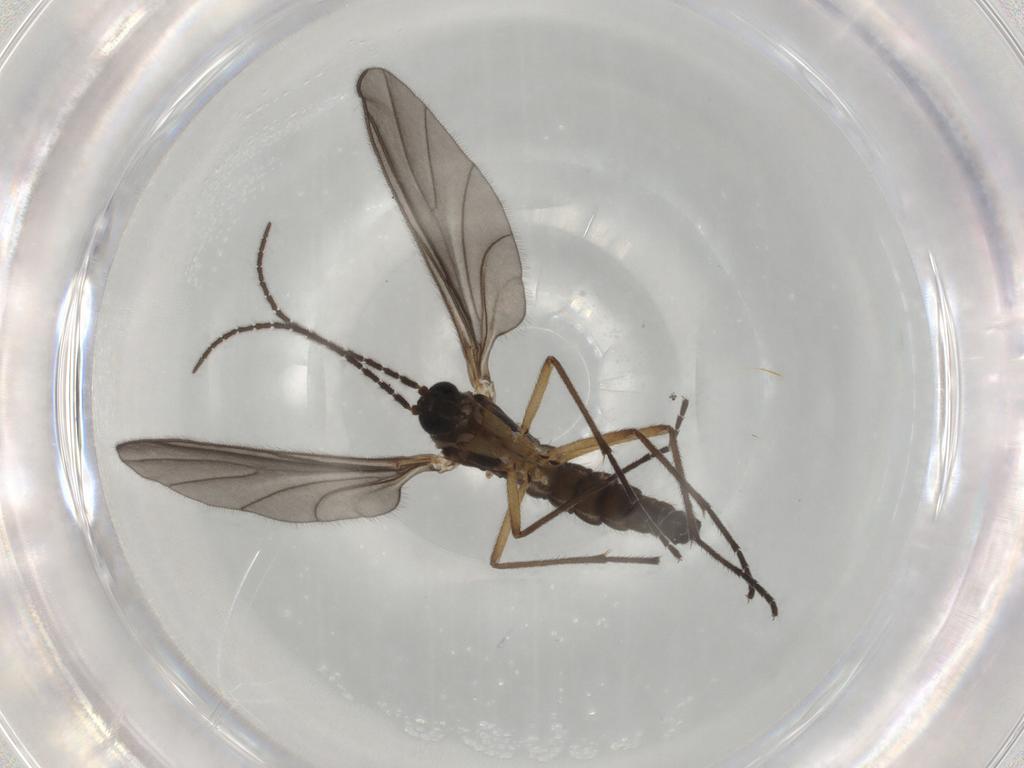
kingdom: Animalia
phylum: Arthropoda
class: Insecta
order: Diptera
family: Sciaridae
